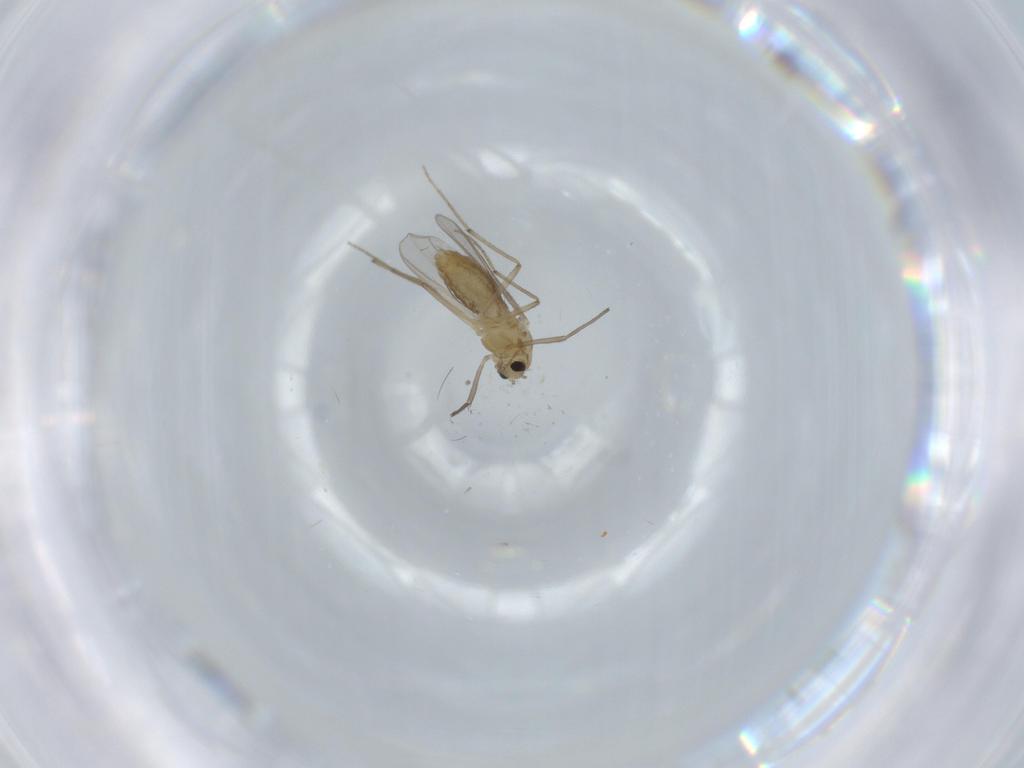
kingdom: Animalia
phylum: Arthropoda
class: Insecta
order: Diptera
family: Chironomidae
